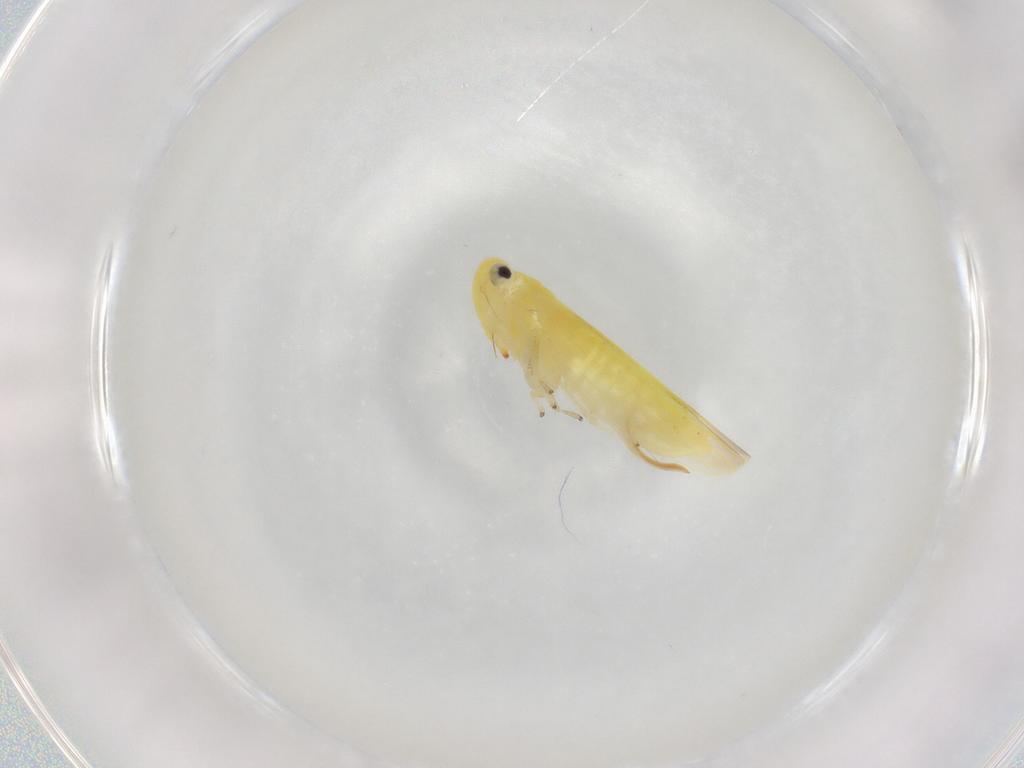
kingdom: Animalia
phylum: Arthropoda
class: Insecta
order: Hemiptera
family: Cicadellidae
